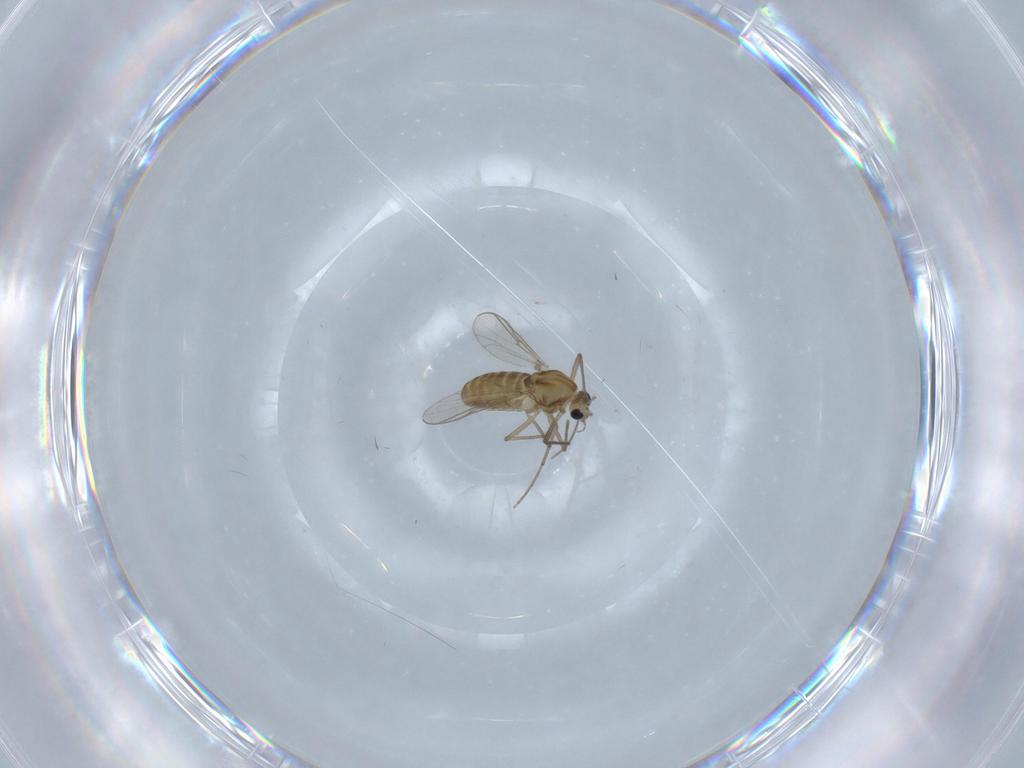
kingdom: Animalia
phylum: Arthropoda
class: Insecta
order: Diptera
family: Chironomidae
